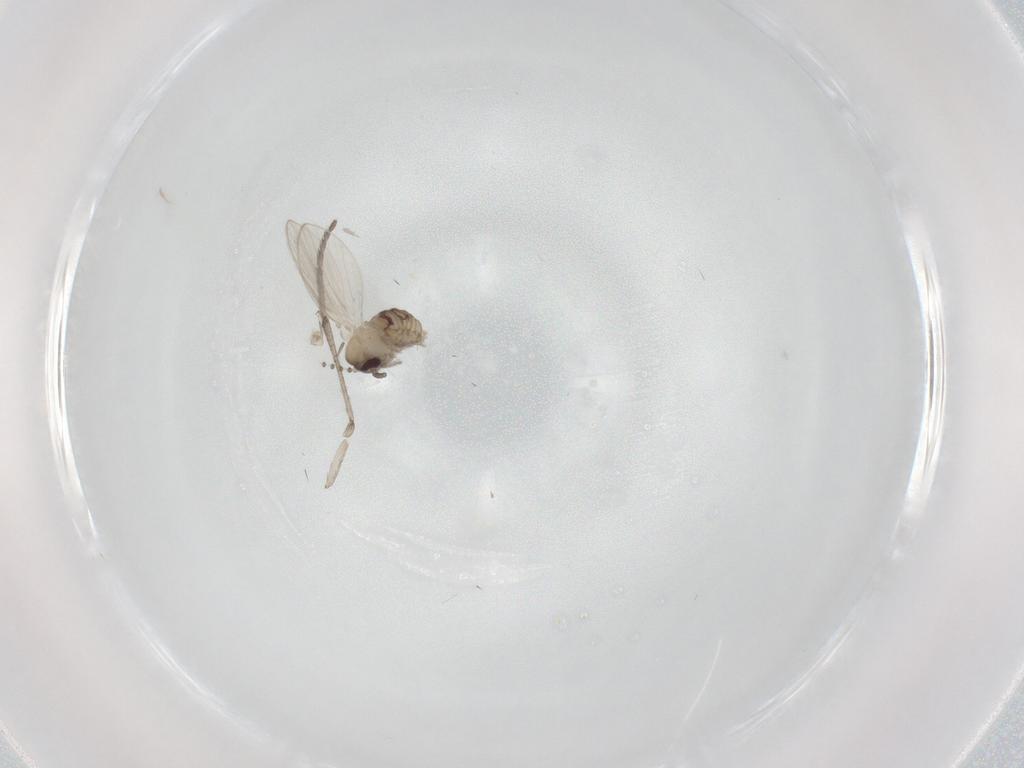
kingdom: Animalia
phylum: Arthropoda
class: Insecta
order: Diptera
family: Psychodidae
